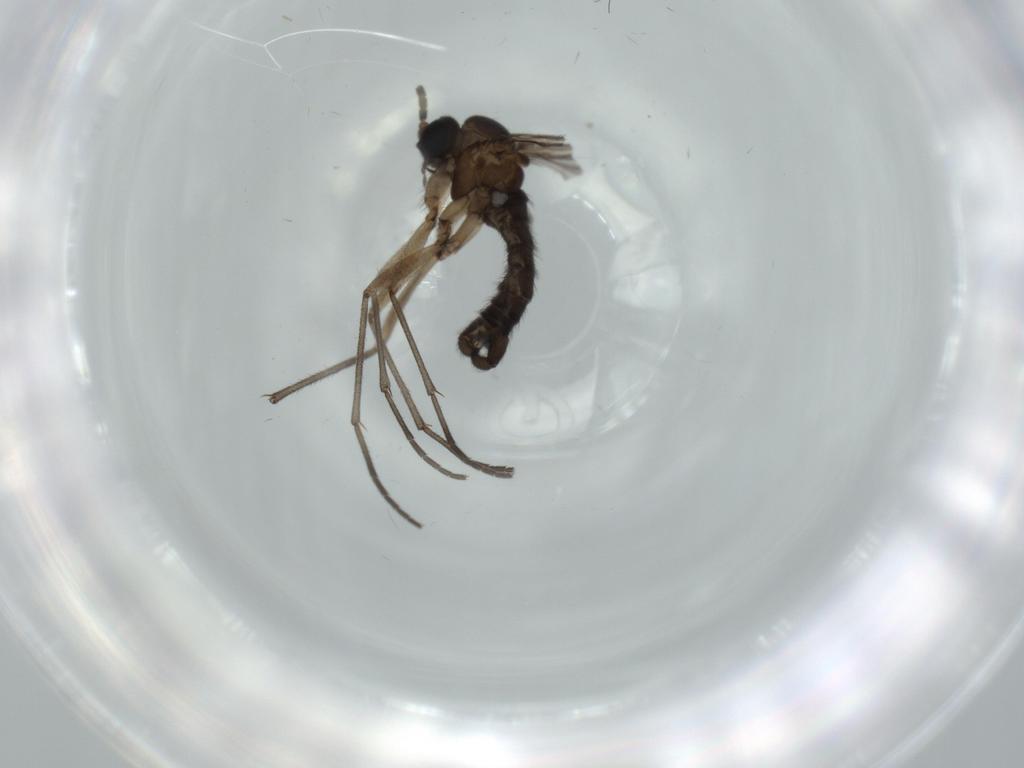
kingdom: Animalia
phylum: Arthropoda
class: Insecta
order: Diptera
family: Sciaridae
